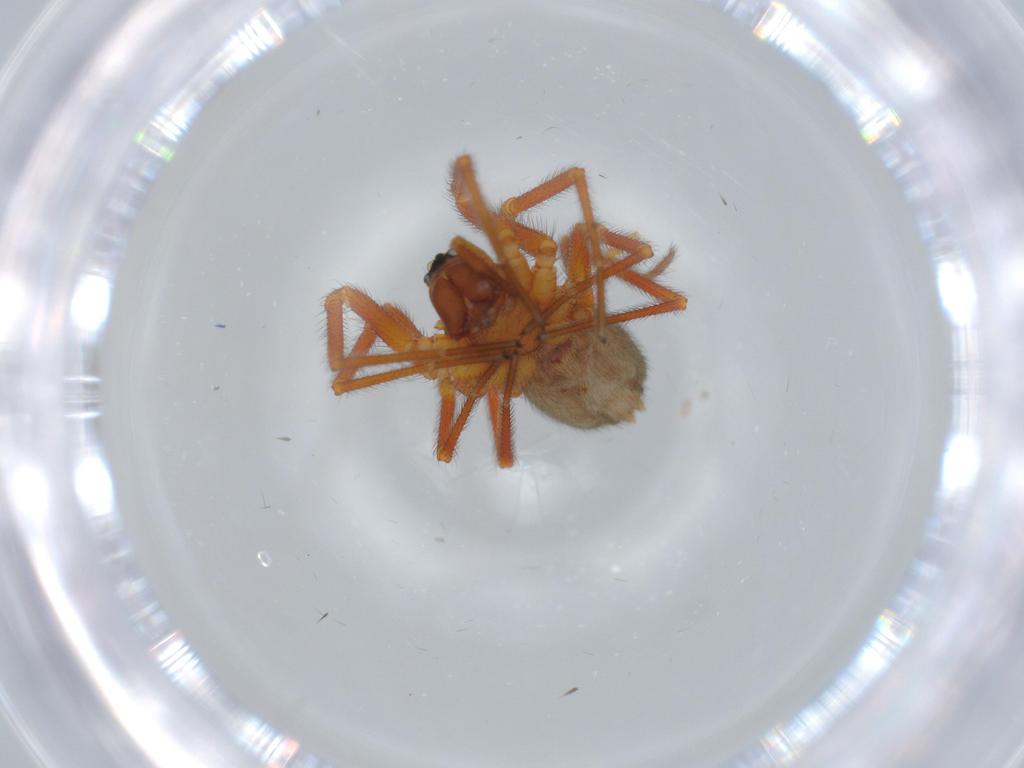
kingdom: Animalia
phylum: Arthropoda
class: Arachnida
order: Araneae
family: Linyphiidae
